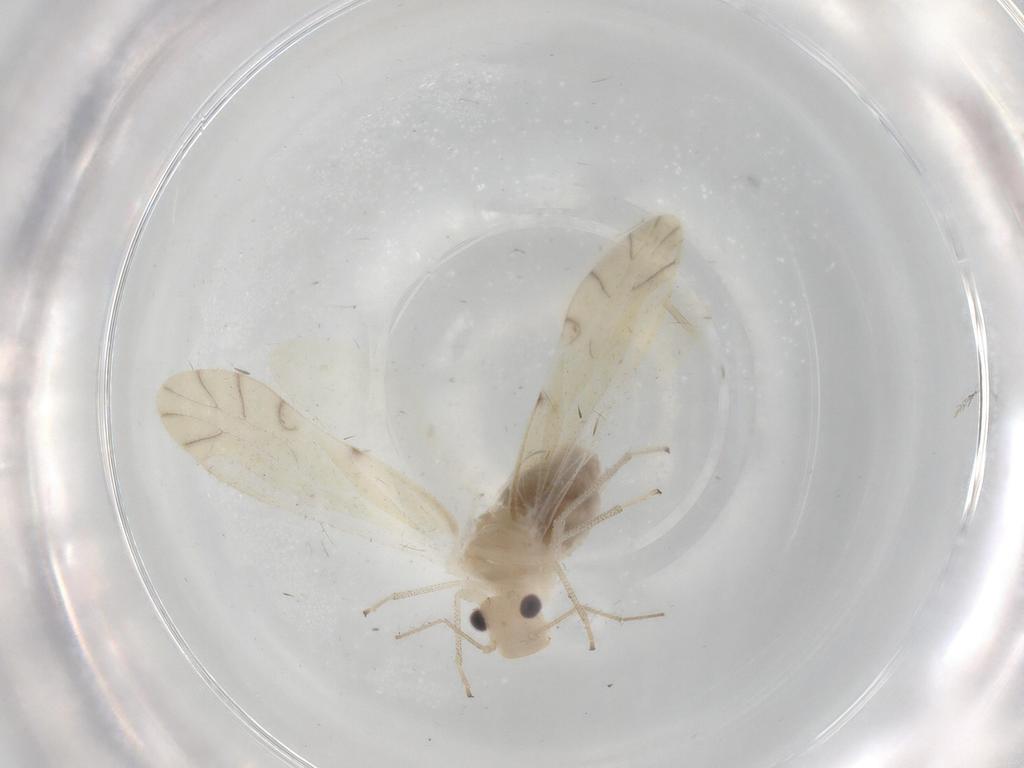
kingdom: Animalia
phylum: Arthropoda
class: Insecta
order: Psocodea
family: Caeciliusidae
